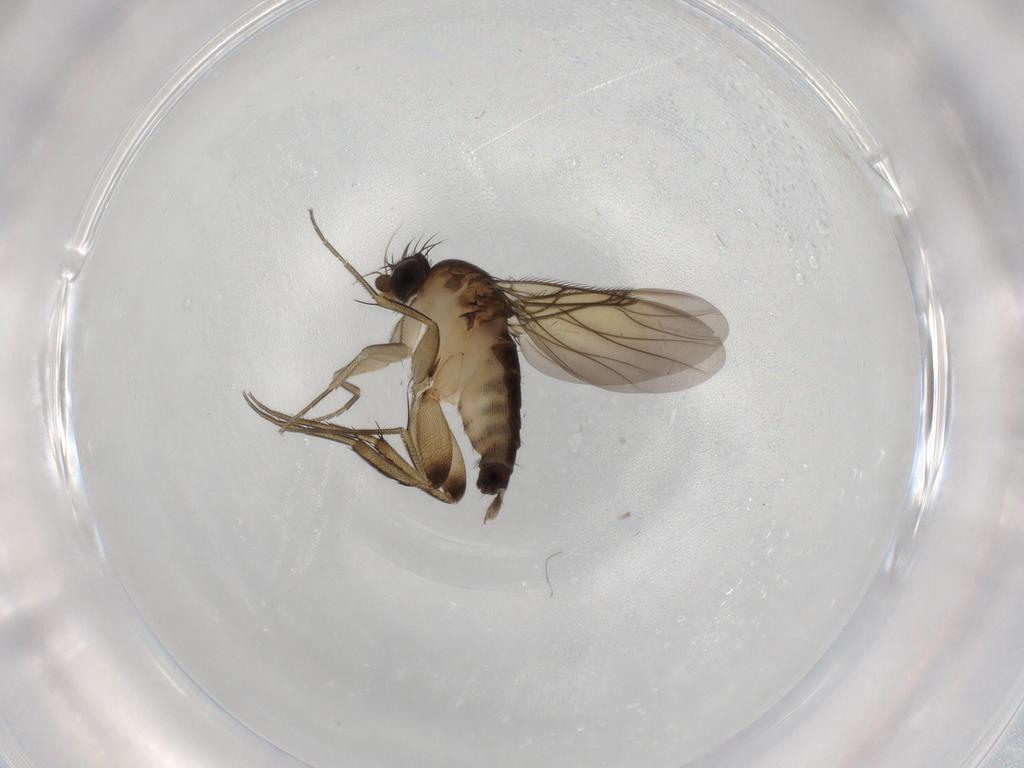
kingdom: Animalia
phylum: Arthropoda
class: Insecta
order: Diptera
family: Phoridae
